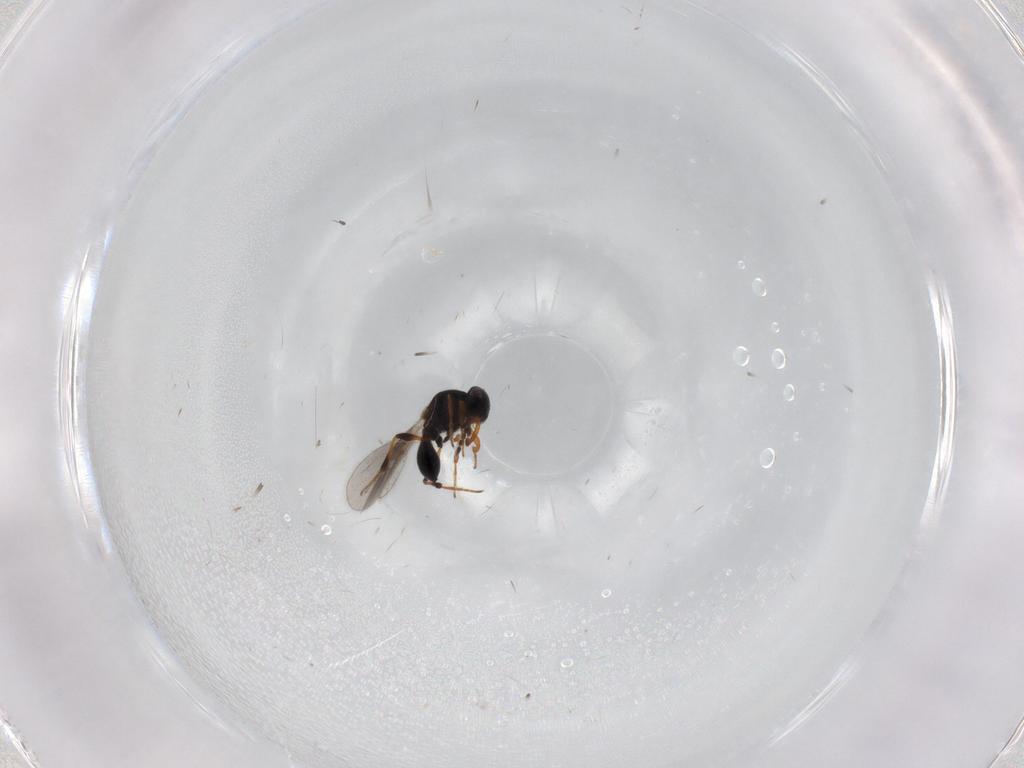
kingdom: Animalia
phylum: Arthropoda
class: Insecta
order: Hymenoptera
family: Platygastridae
